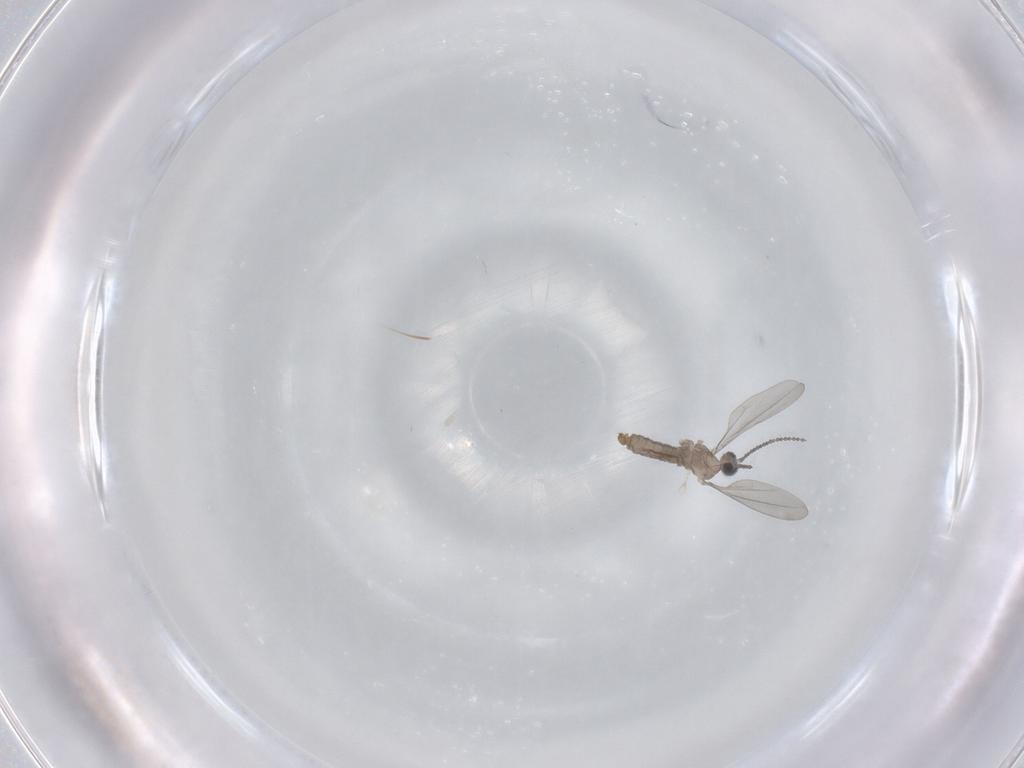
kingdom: Animalia
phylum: Arthropoda
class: Insecta
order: Diptera
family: Cecidomyiidae
